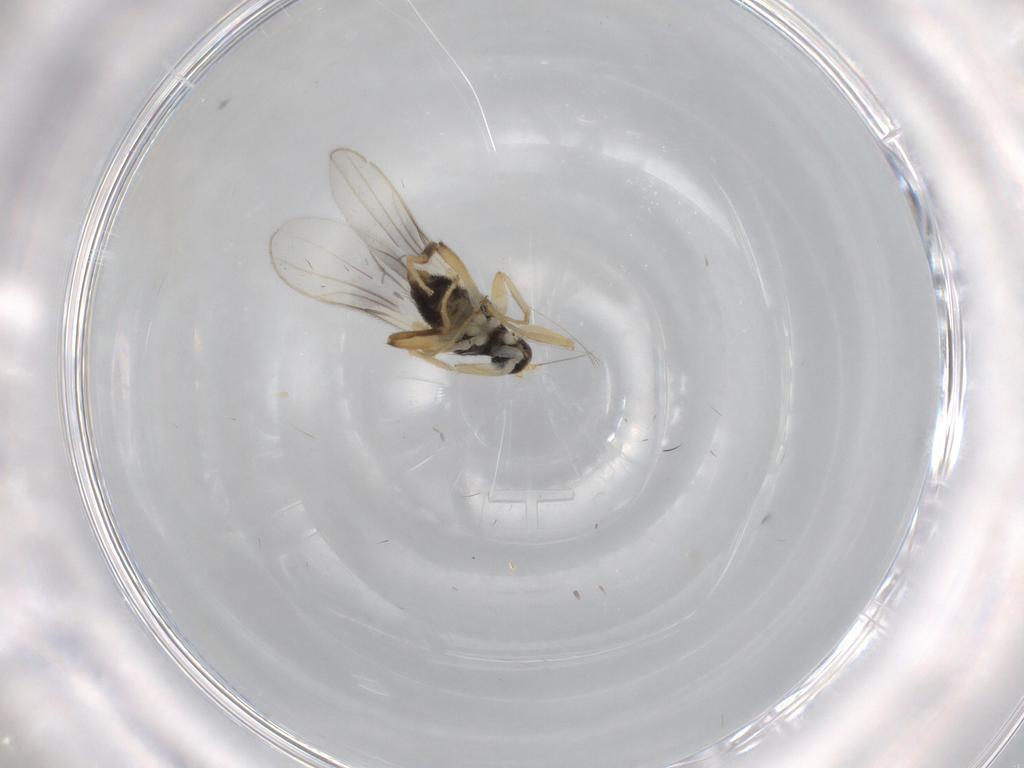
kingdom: Animalia
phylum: Arthropoda
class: Insecta
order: Diptera
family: Hybotidae
